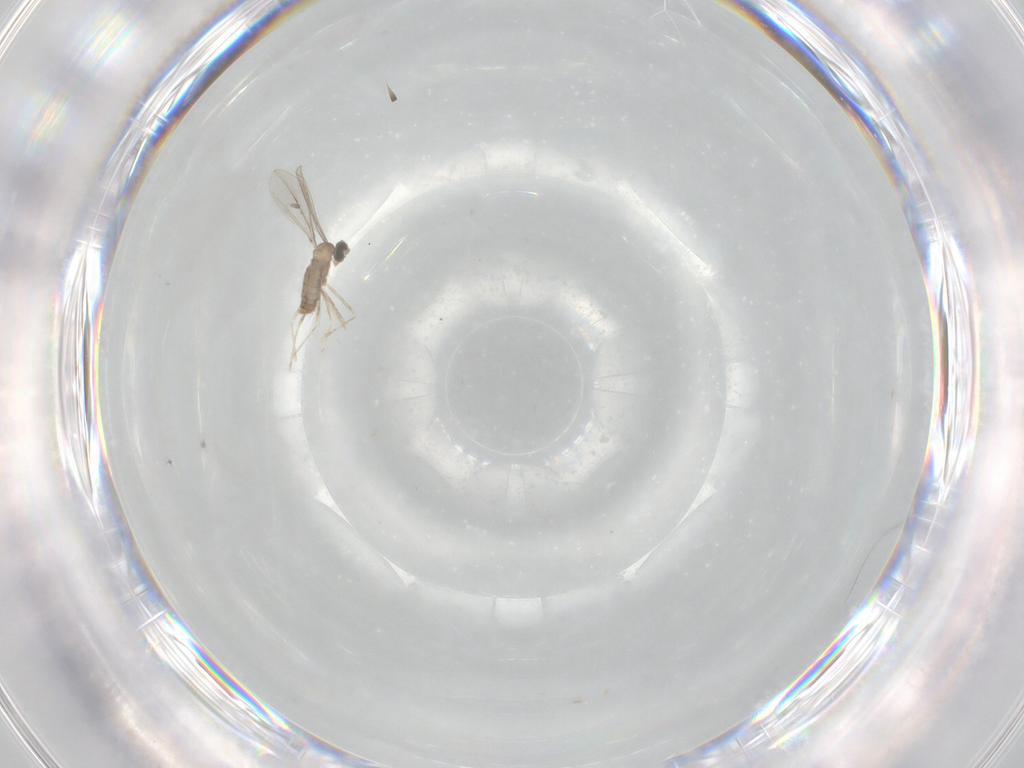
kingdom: Animalia
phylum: Arthropoda
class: Insecta
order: Diptera
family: Cecidomyiidae
